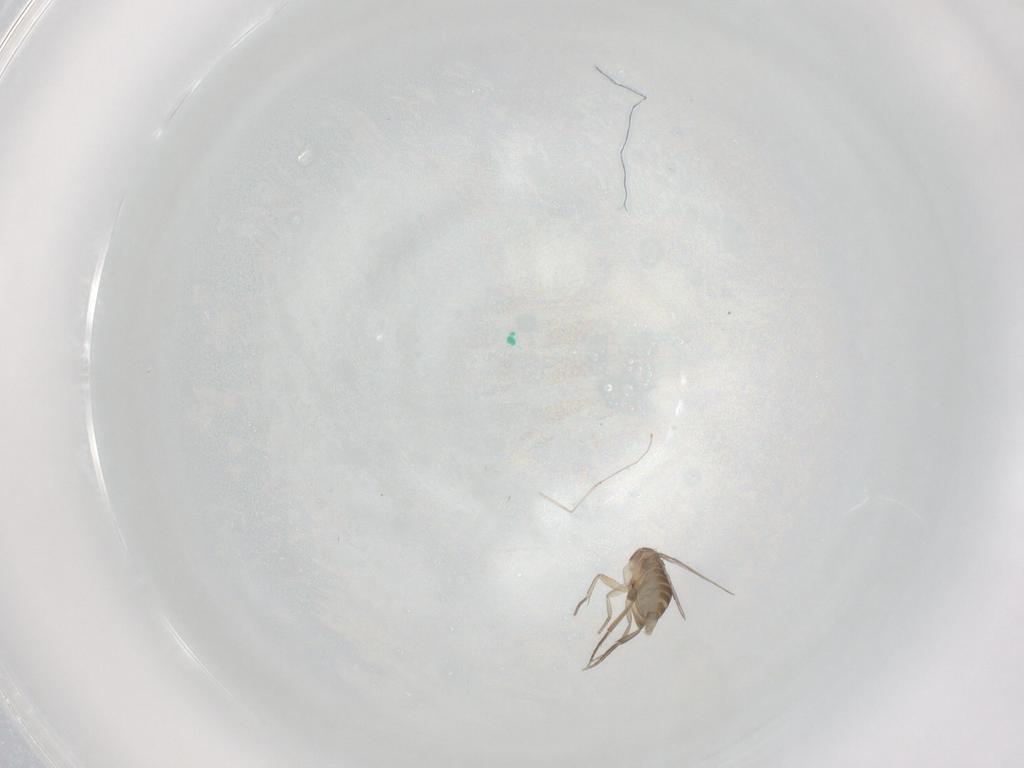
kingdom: Animalia
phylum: Arthropoda
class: Insecta
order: Diptera
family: Phoridae
